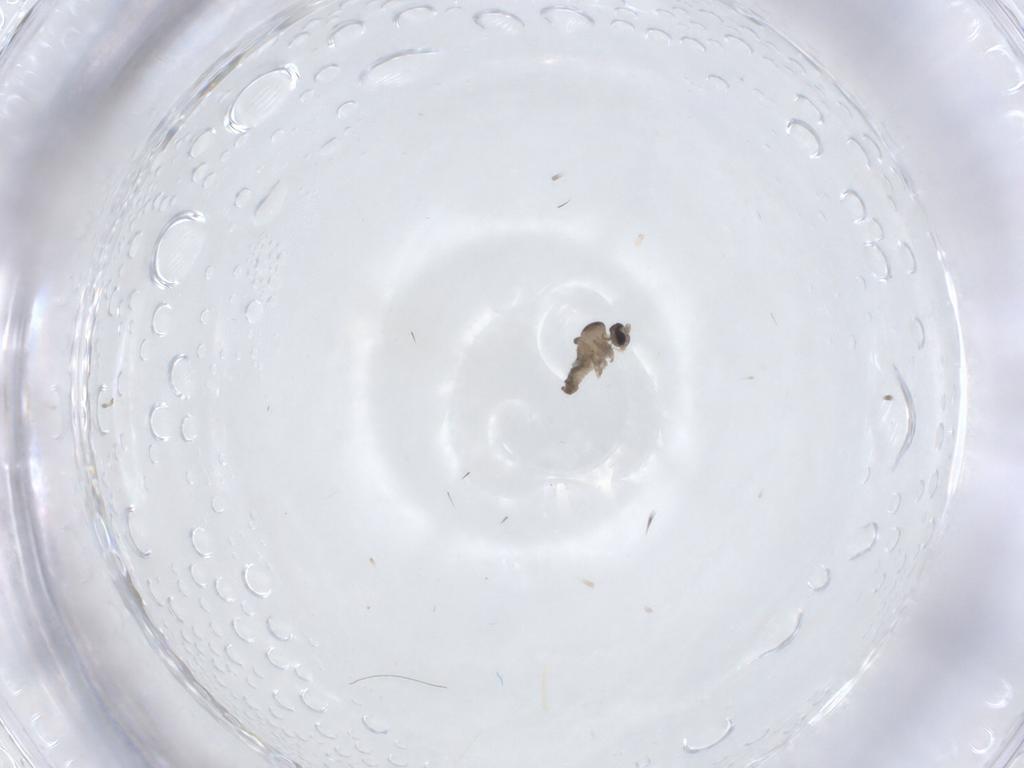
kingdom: Animalia
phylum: Arthropoda
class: Insecta
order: Diptera
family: Cecidomyiidae
